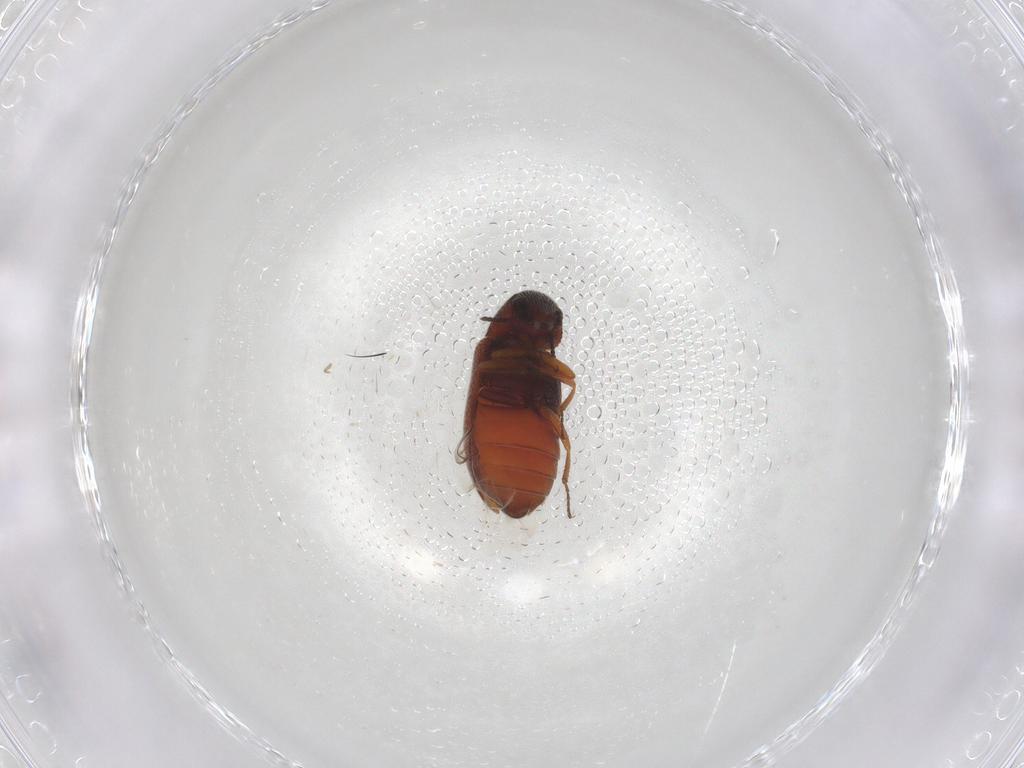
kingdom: Animalia
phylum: Arthropoda
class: Insecta
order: Coleoptera
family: Rhadalidae
